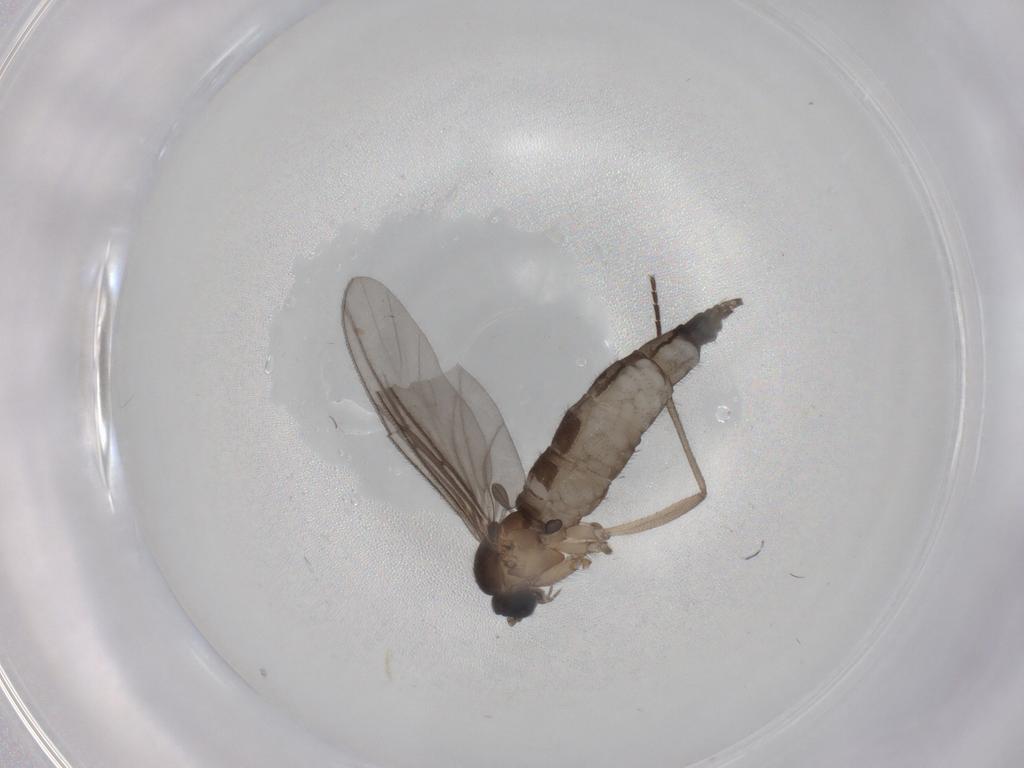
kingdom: Animalia
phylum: Arthropoda
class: Insecta
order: Diptera
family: Sciaridae
